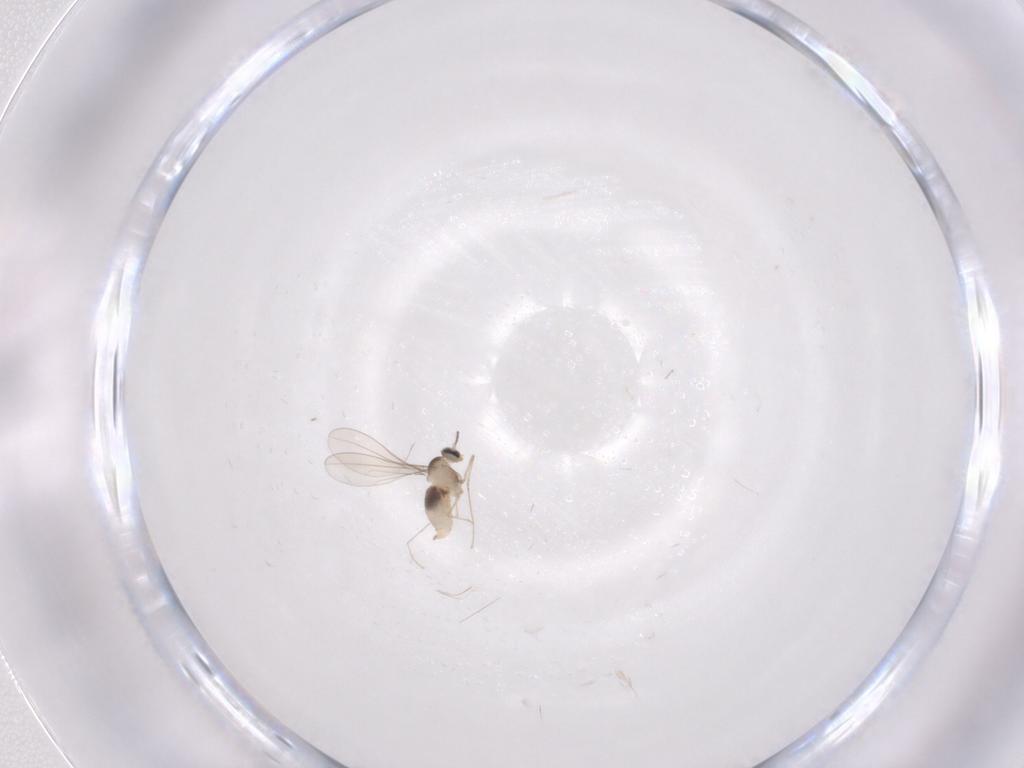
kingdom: Animalia
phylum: Arthropoda
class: Insecta
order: Diptera
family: Cecidomyiidae
